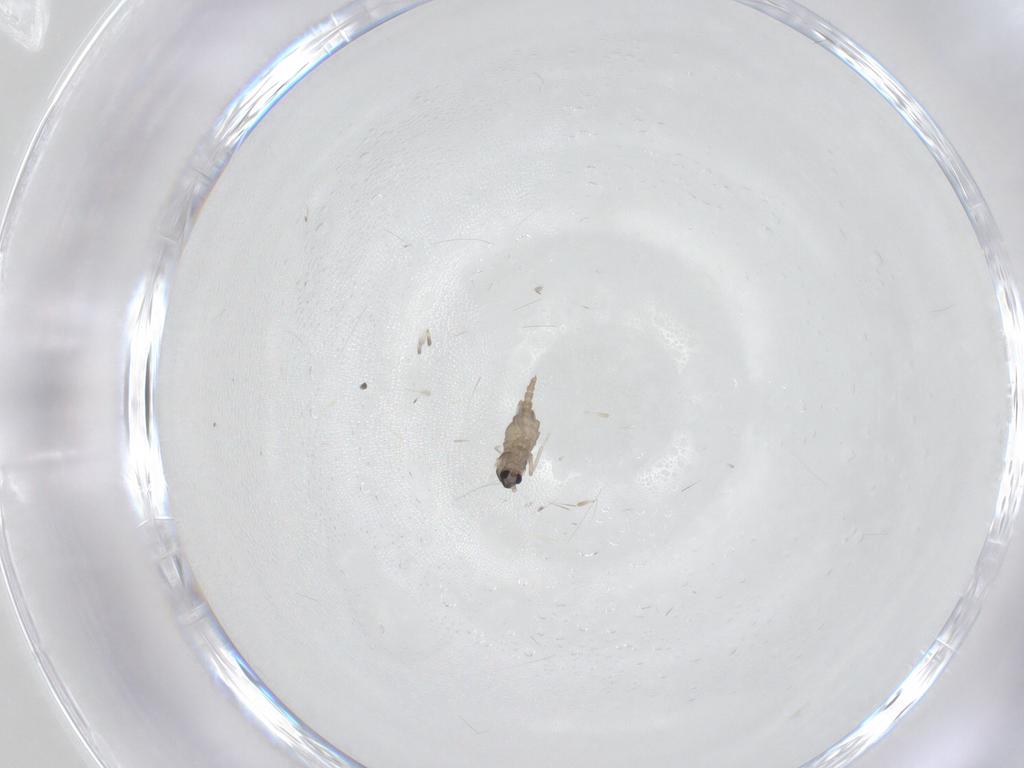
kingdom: Animalia
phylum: Arthropoda
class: Insecta
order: Diptera
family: Cecidomyiidae
